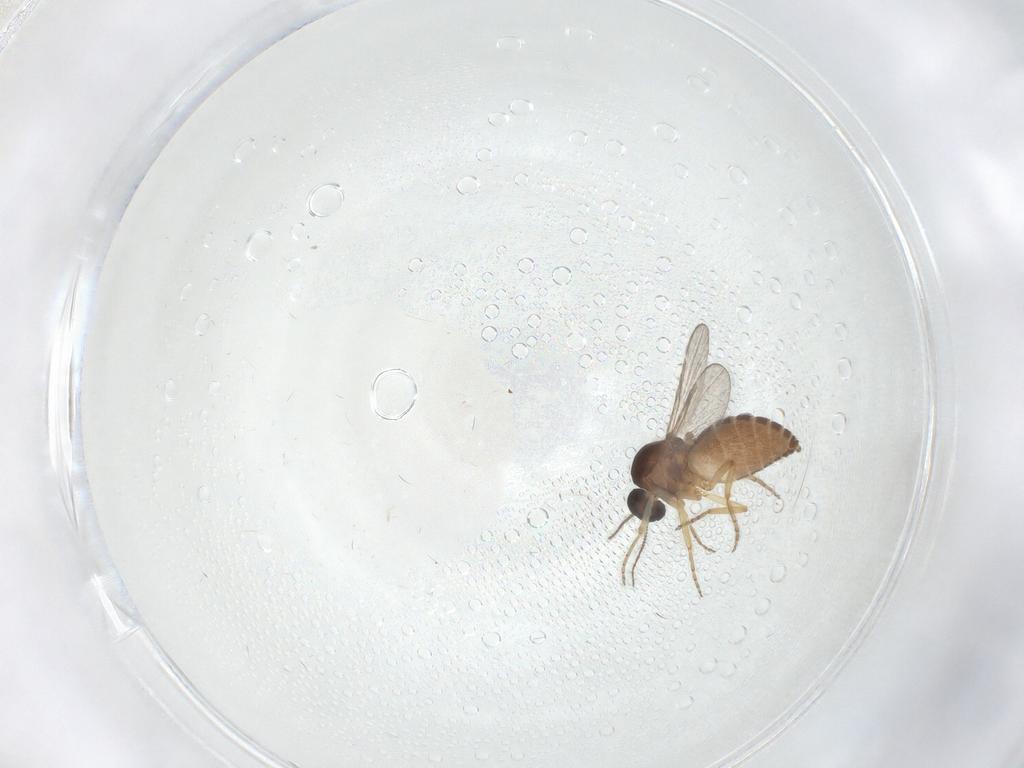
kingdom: Animalia
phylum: Arthropoda
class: Insecta
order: Diptera
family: Ceratopogonidae
